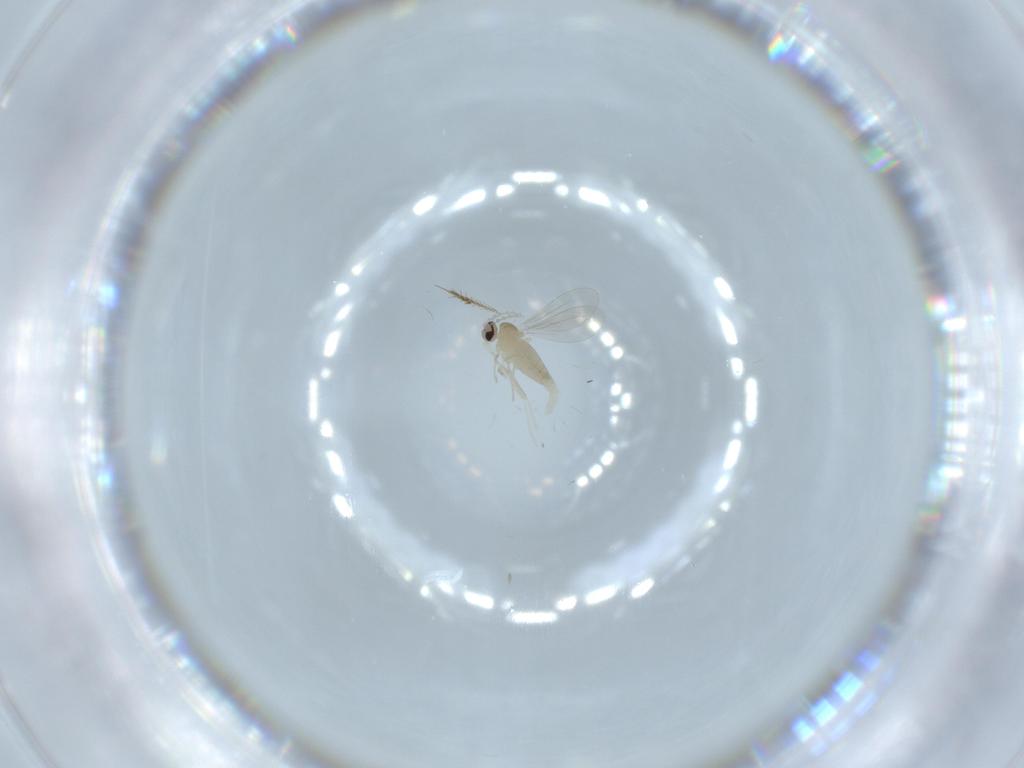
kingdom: Animalia
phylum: Arthropoda
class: Insecta
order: Diptera
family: Cecidomyiidae
